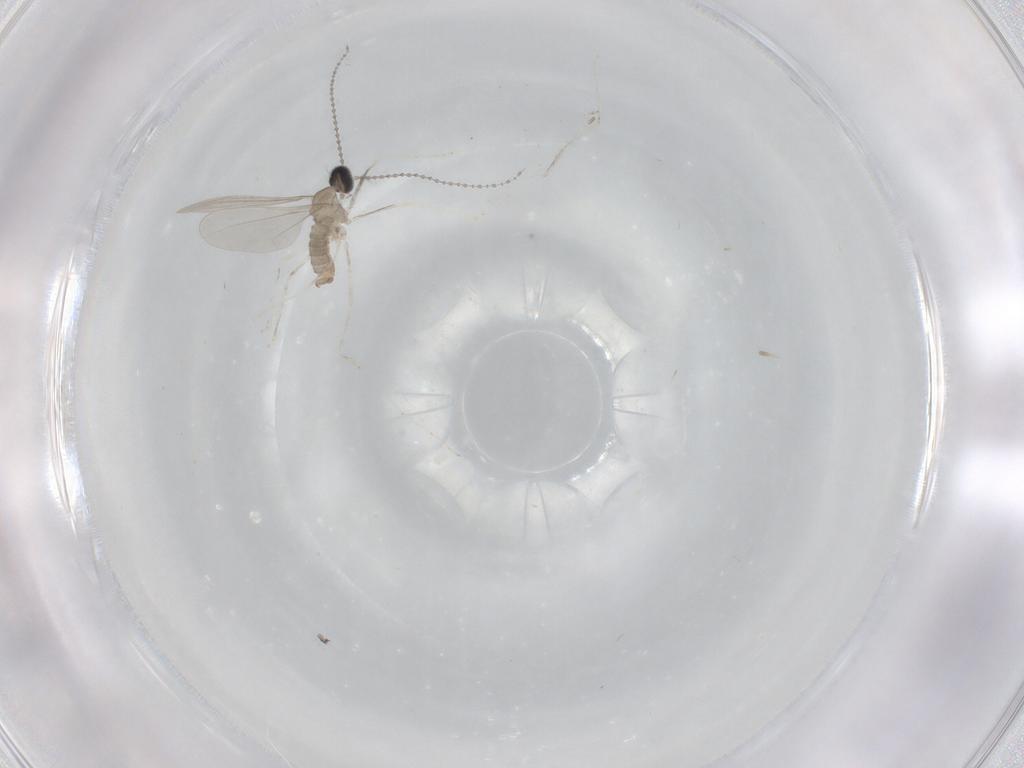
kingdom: Animalia
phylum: Arthropoda
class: Insecta
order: Diptera
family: Cecidomyiidae
